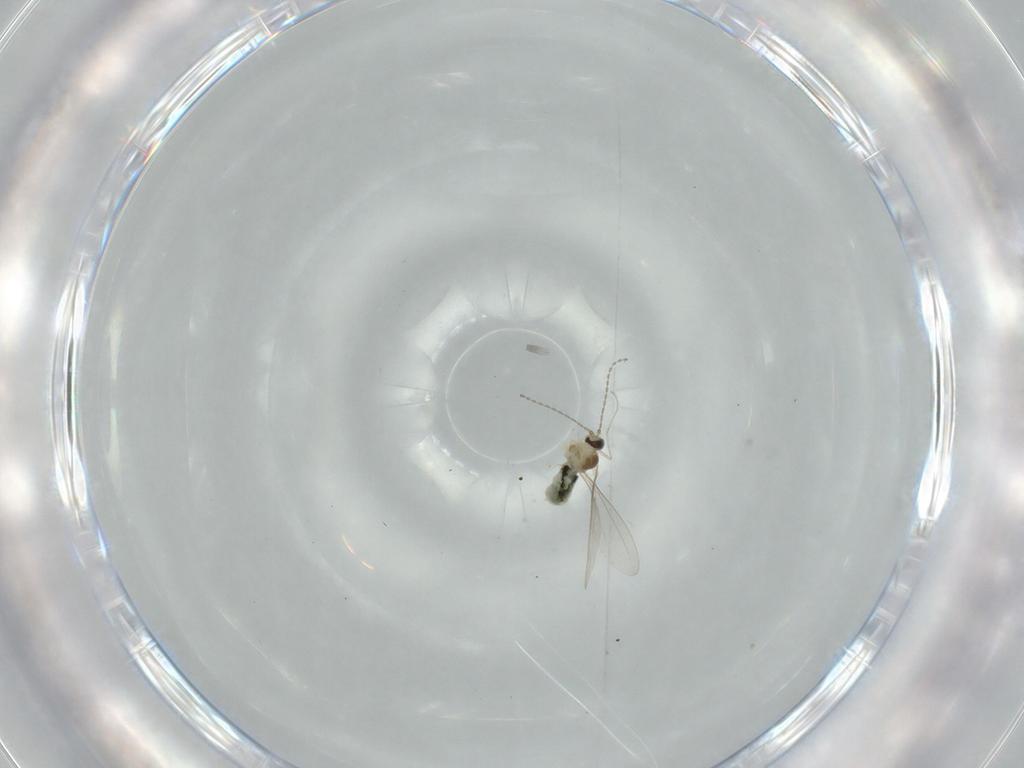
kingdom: Animalia
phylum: Arthropoda
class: Insecta
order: Diptera
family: Cecidomyiidae
